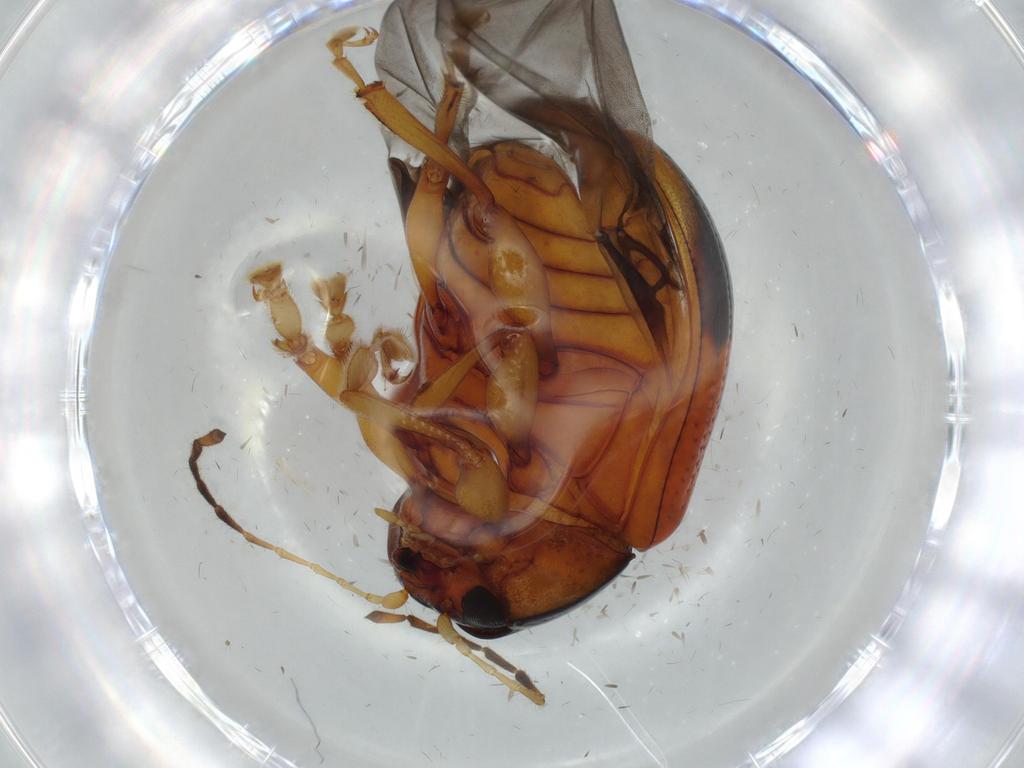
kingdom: Animalia
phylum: Arthropoda
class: Insecta
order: Coleoptera
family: Chrysomelidae
